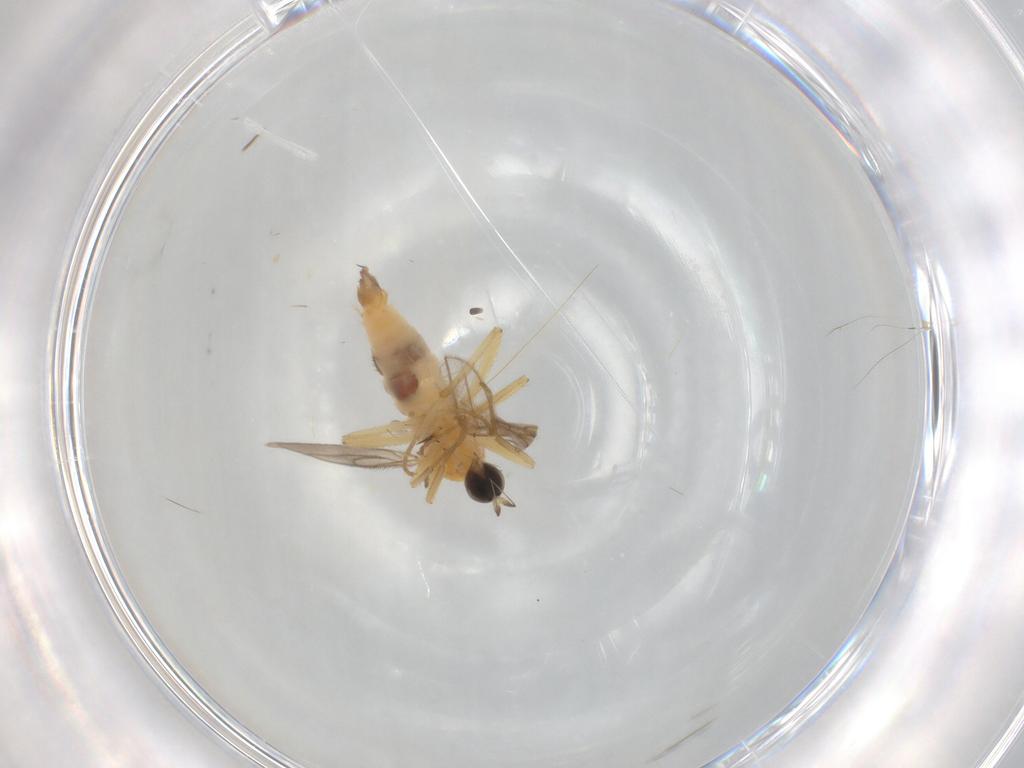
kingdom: Animalia
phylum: Arthropoda
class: Insecta
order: Diptera
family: Hybotidae
